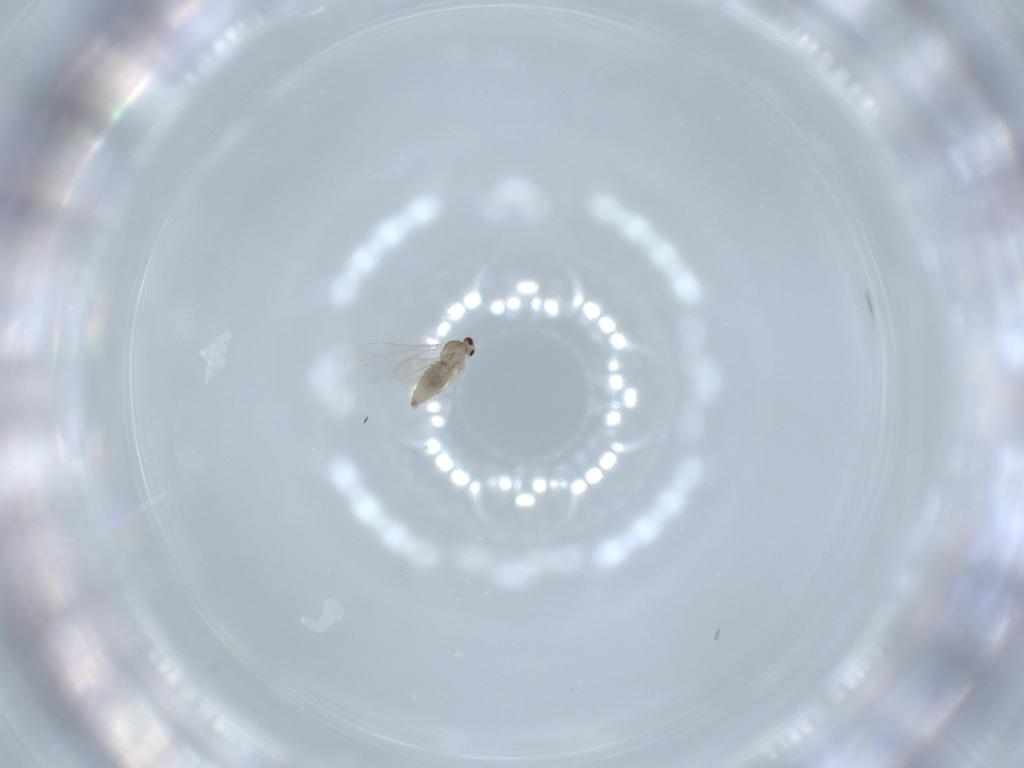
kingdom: Animalia
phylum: Arthropoda
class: Insecta
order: Diptera
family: Cecidomyiidae
